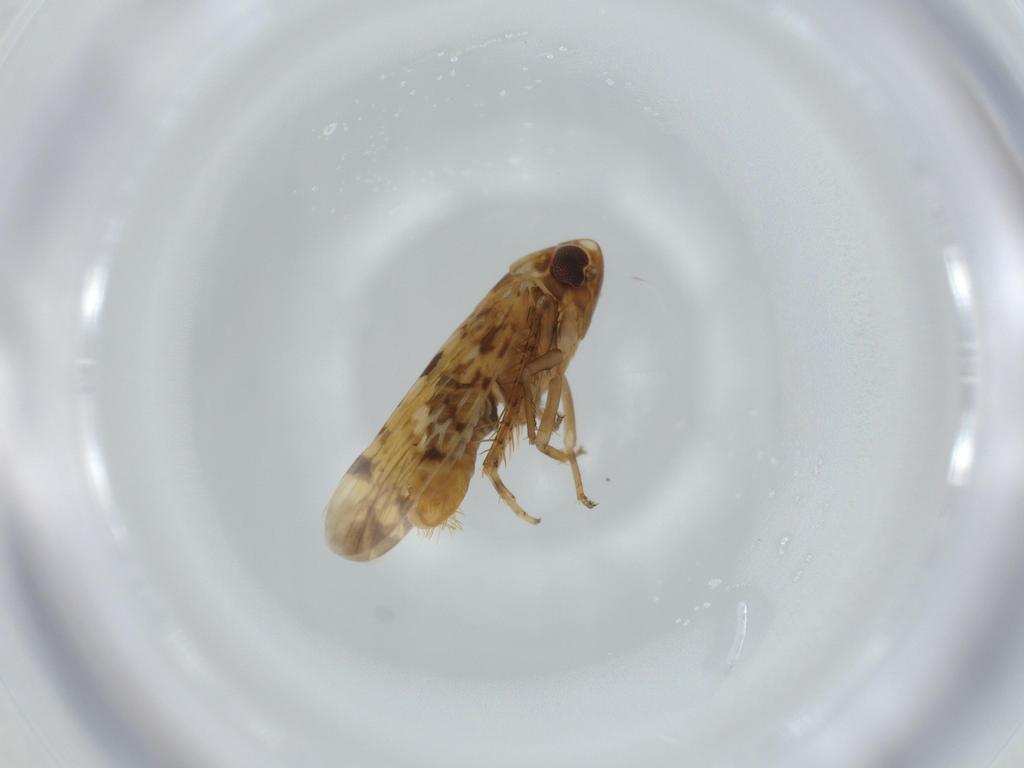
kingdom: Animalia
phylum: Arthropoda
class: Insecta
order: Hemiptera
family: Cicadellidae
